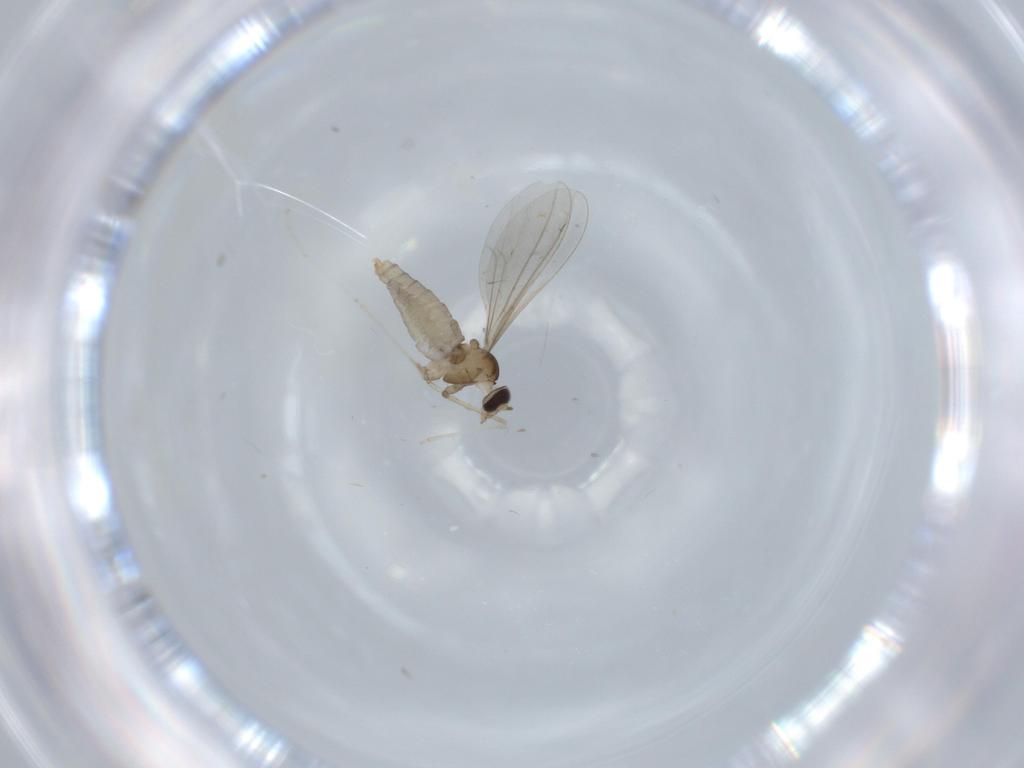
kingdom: Animalia
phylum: Arthropoda
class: Insecta
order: Diptera
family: Cecidomyiidae
